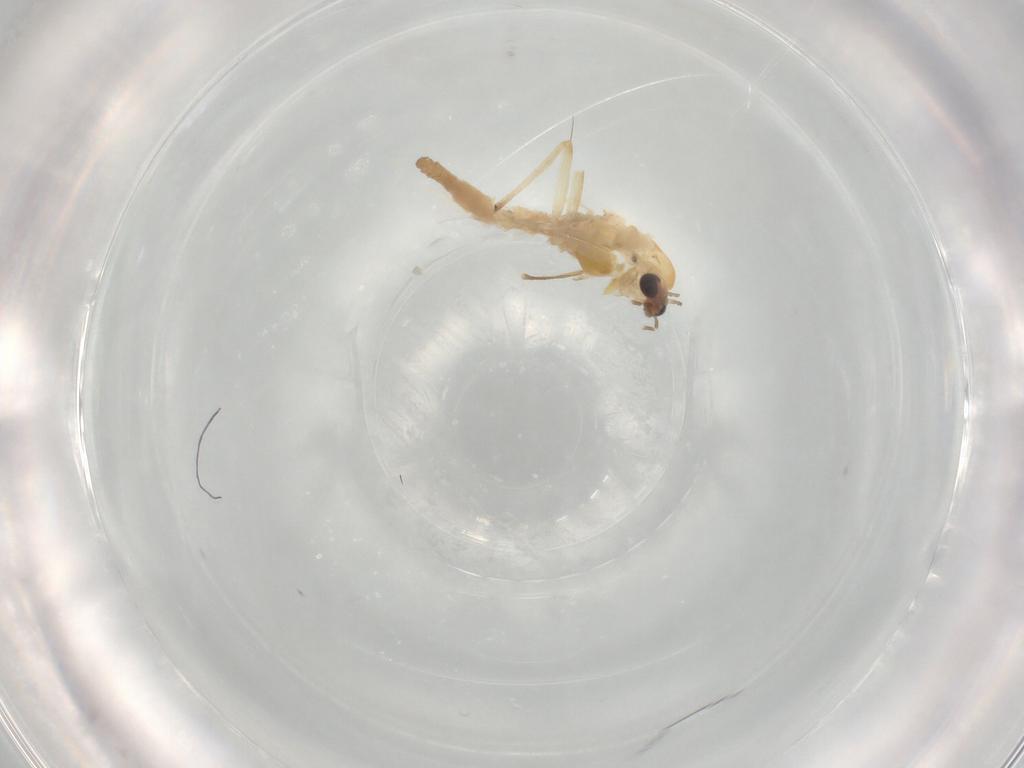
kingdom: Animalia
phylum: Arthropoda
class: Insecta
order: Diptera
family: Chironomidae
